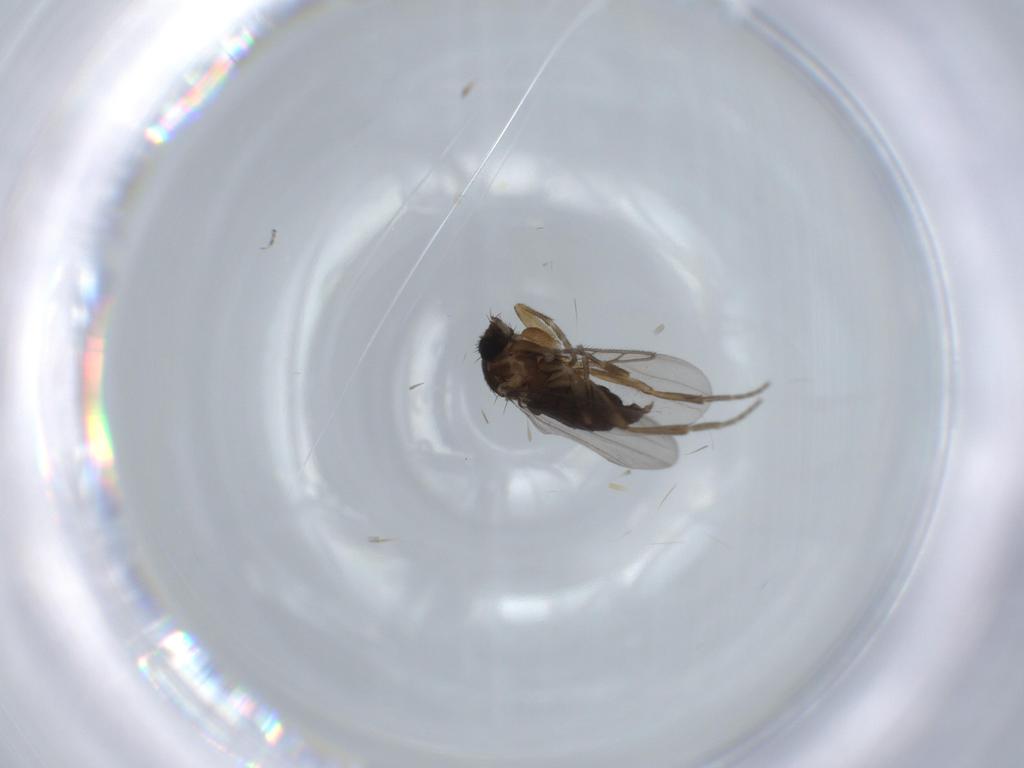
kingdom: Animalia
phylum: Arthropoda
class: Insecta
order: Diptera
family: Phoridae
